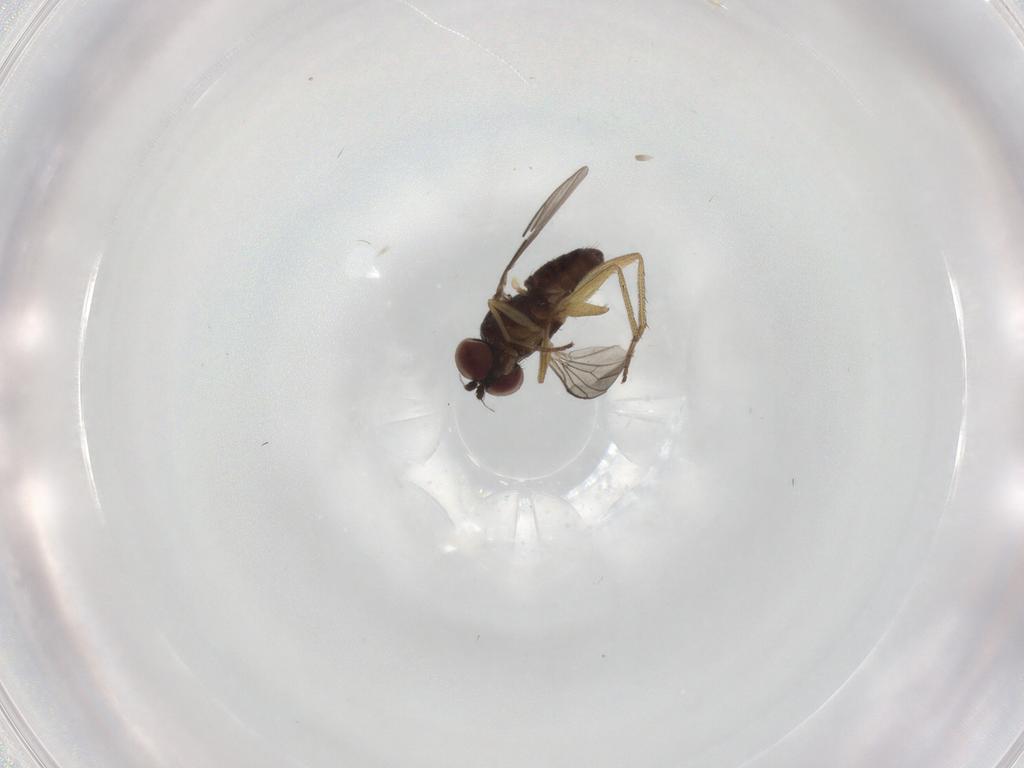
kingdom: Animalia
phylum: Arthropoda
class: Insecta
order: Diptera
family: Dolichopodidae
